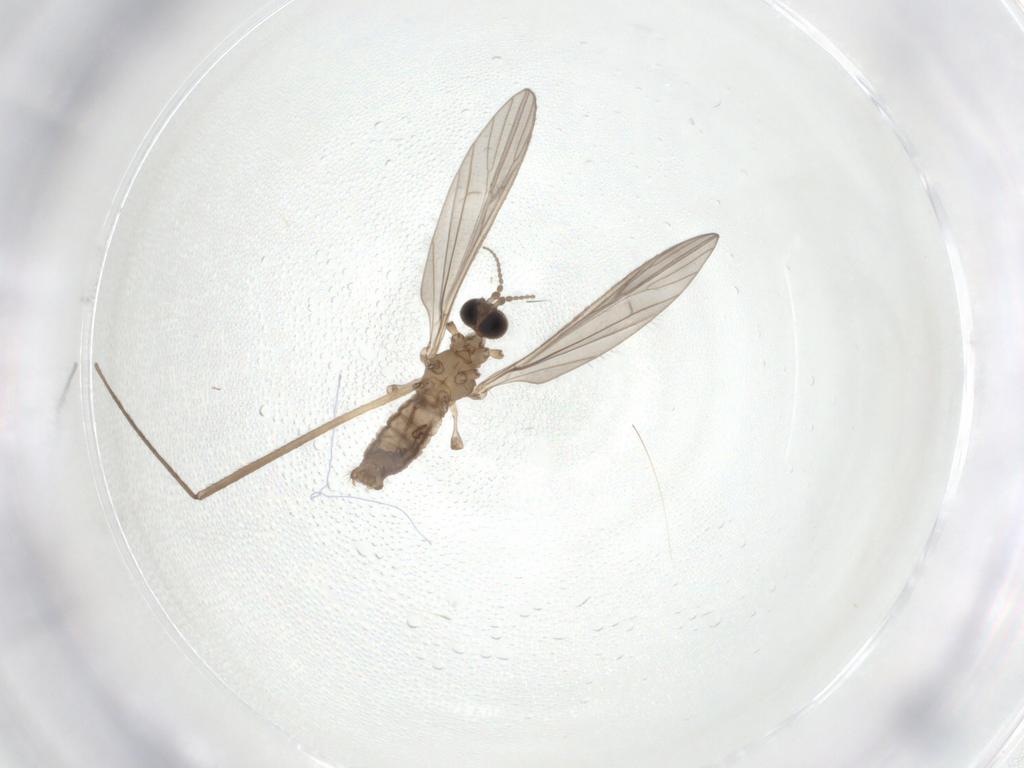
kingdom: Animalia
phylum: Arthropoda
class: Insecta
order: Diptera
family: Limoniidae
